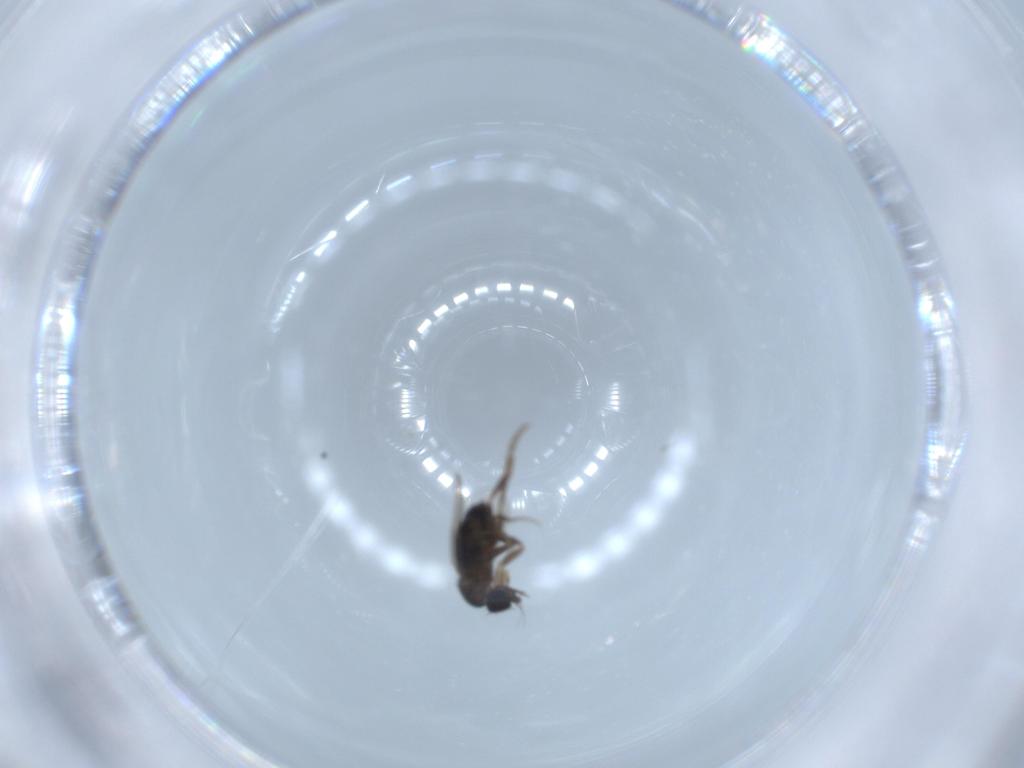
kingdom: Animalia
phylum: Arthropoda
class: Insecta
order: Diptera
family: Phoridae
